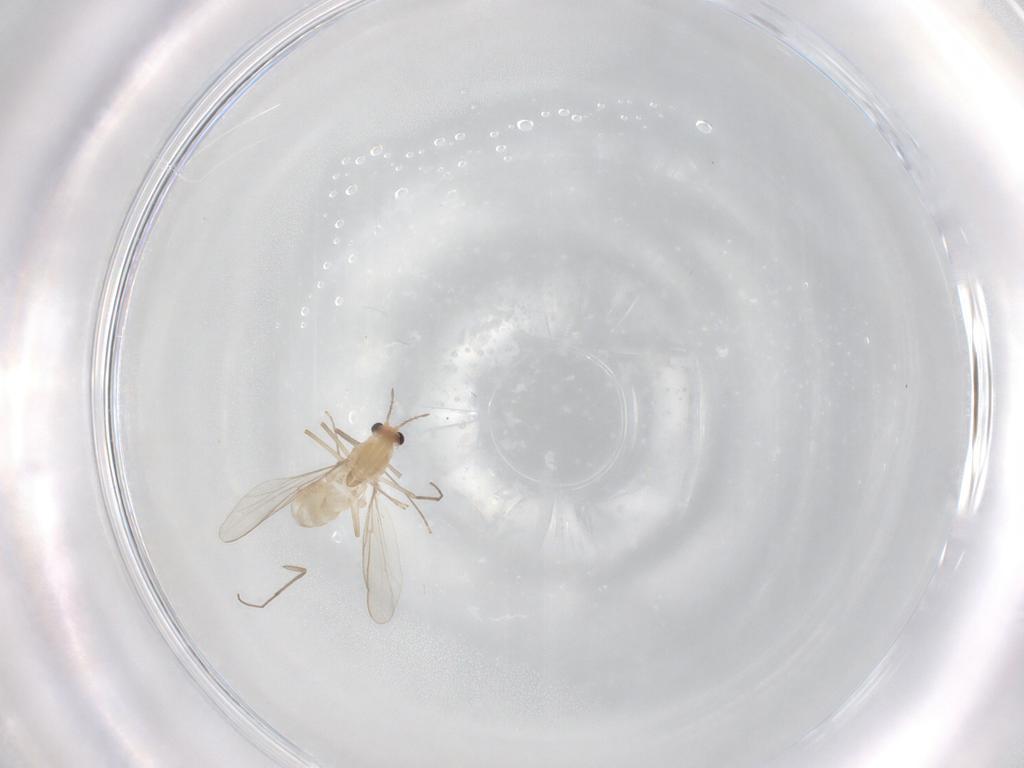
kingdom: Animalia
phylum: Arthropoda
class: Insecta
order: Diptera
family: Chironomidae
